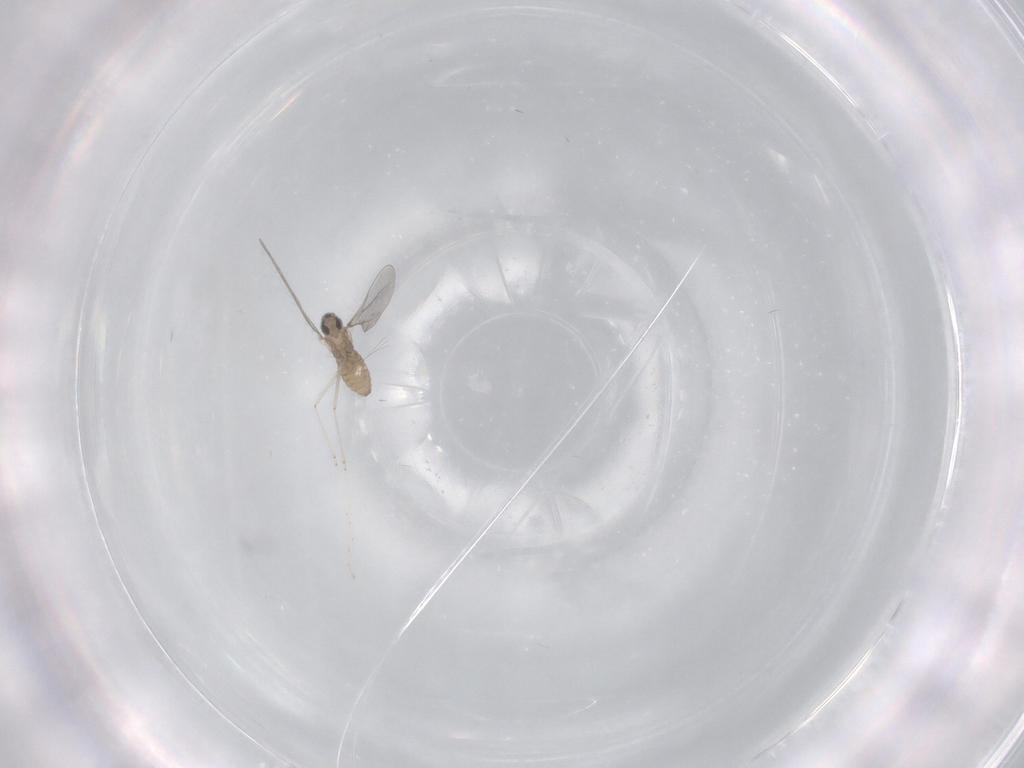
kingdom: Animalia
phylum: Arthropoda
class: Insecta
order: Diptera
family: Cecidomyiidae
